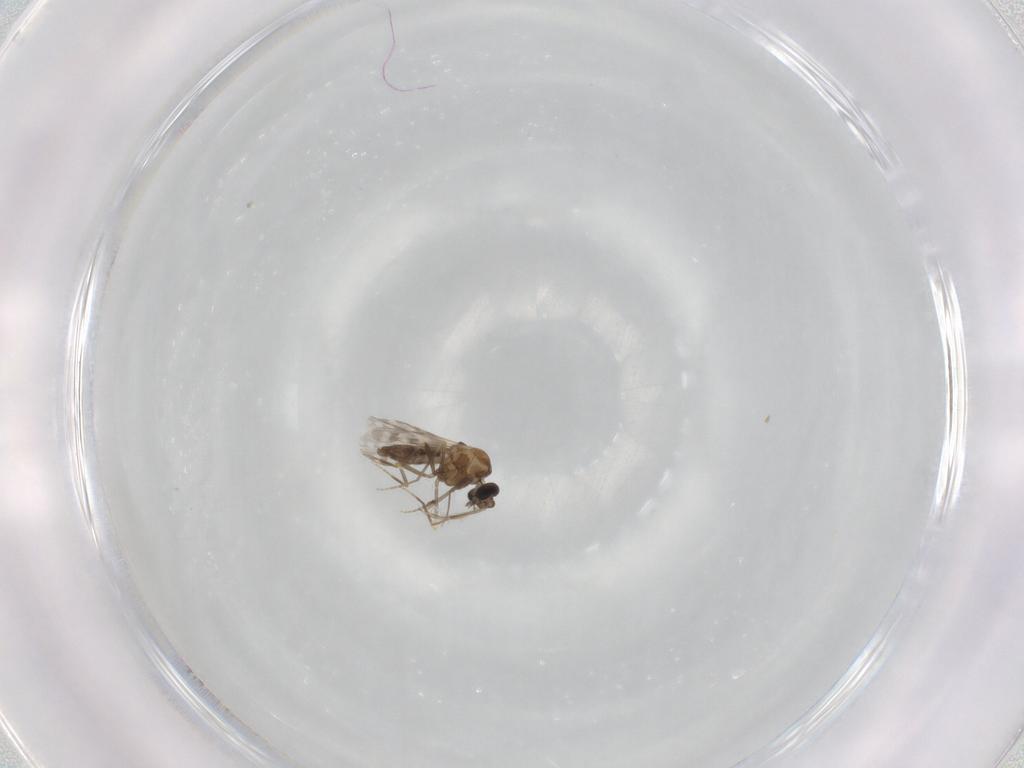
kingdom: Animalia
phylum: Arthropoda
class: Insecta
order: Diptera
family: Ceratopogonidae
